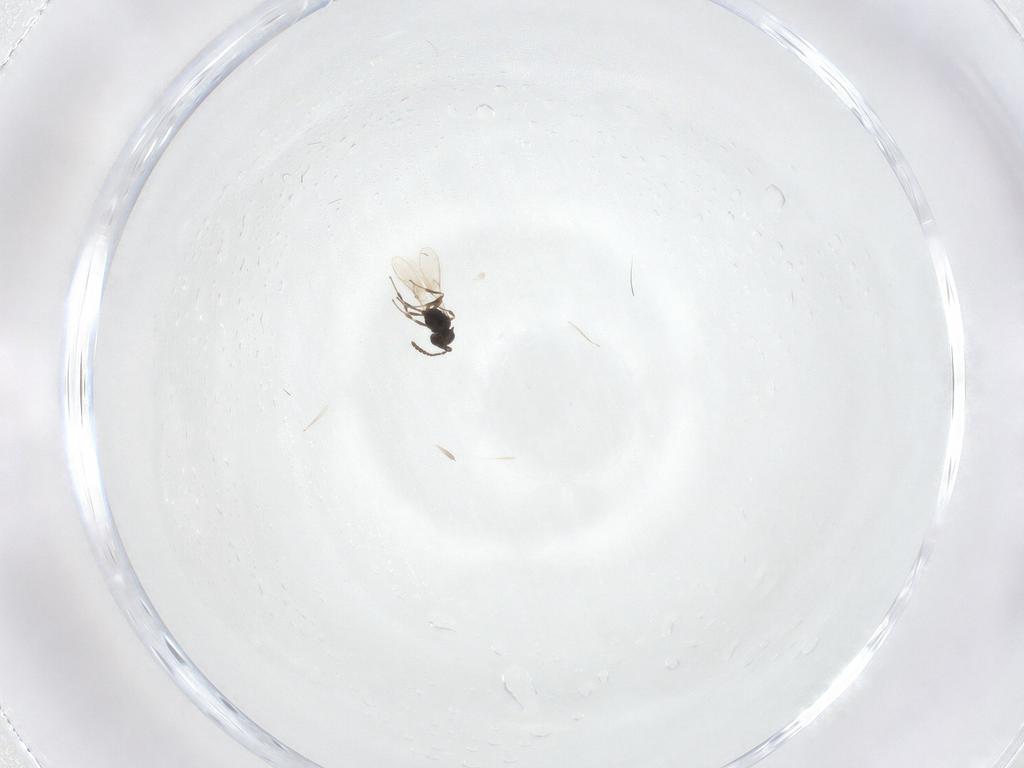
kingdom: Animalia
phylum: Arthropoda
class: Insecta
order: Hymenoptera
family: Scelionidae
